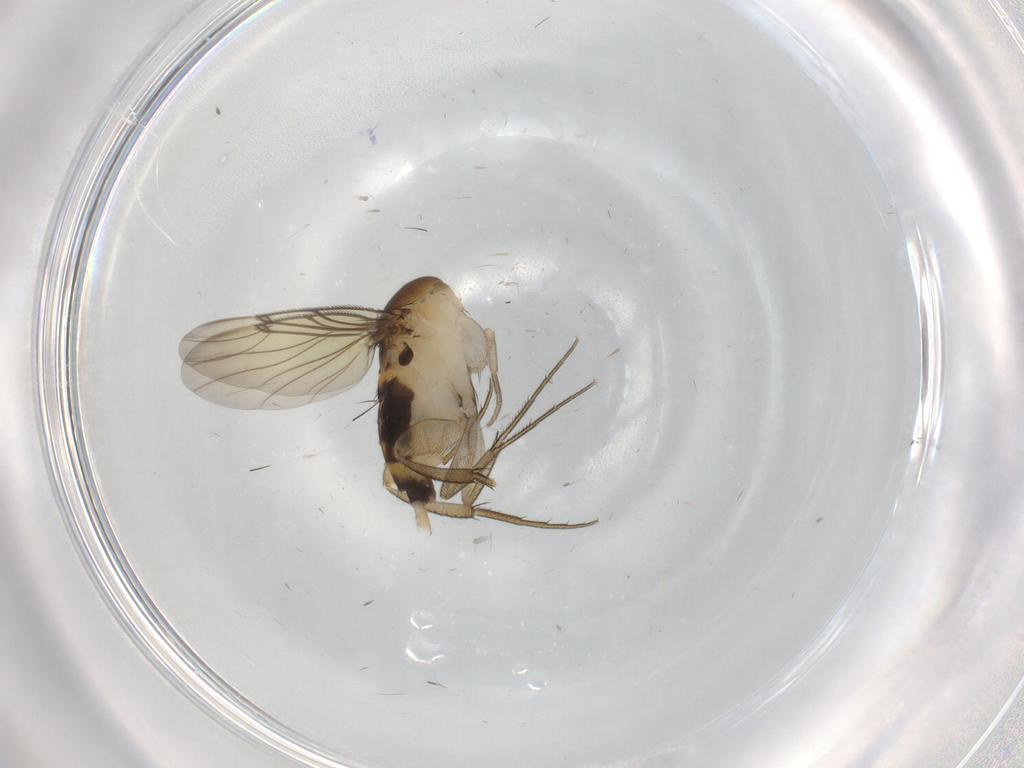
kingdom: Animalia
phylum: Arthropoda
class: Insecta
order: Diptera
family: Phoridae
